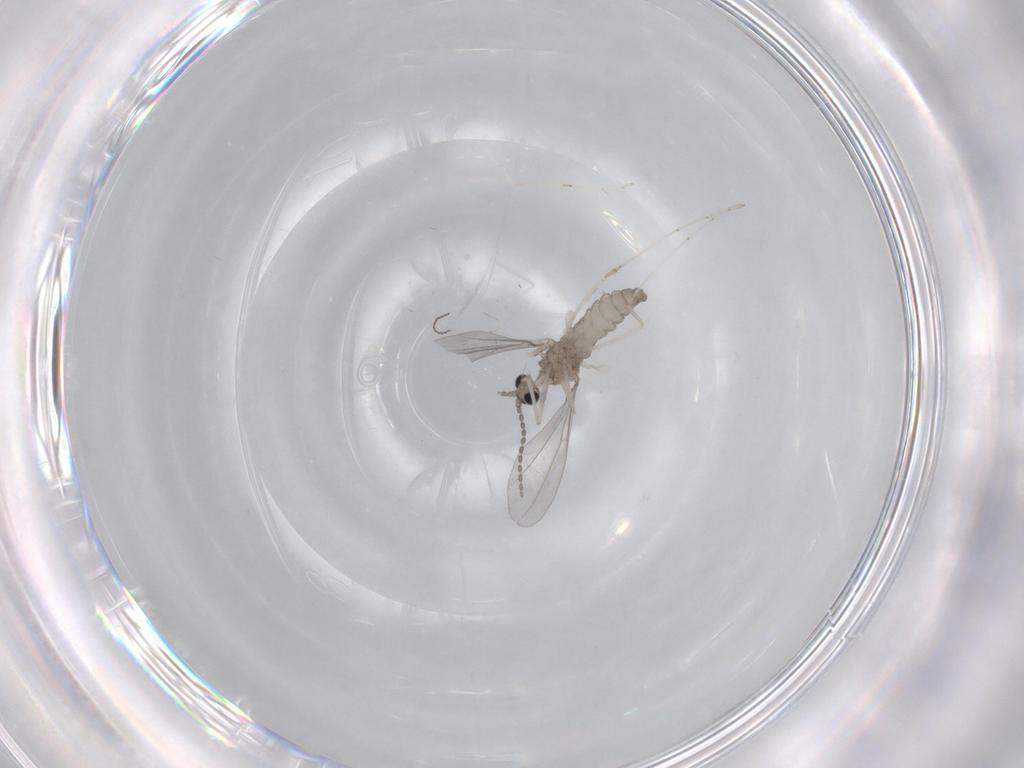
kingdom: Animalia
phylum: Arthropoda
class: Insecta
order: Diptera
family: Cecidomyiidae
